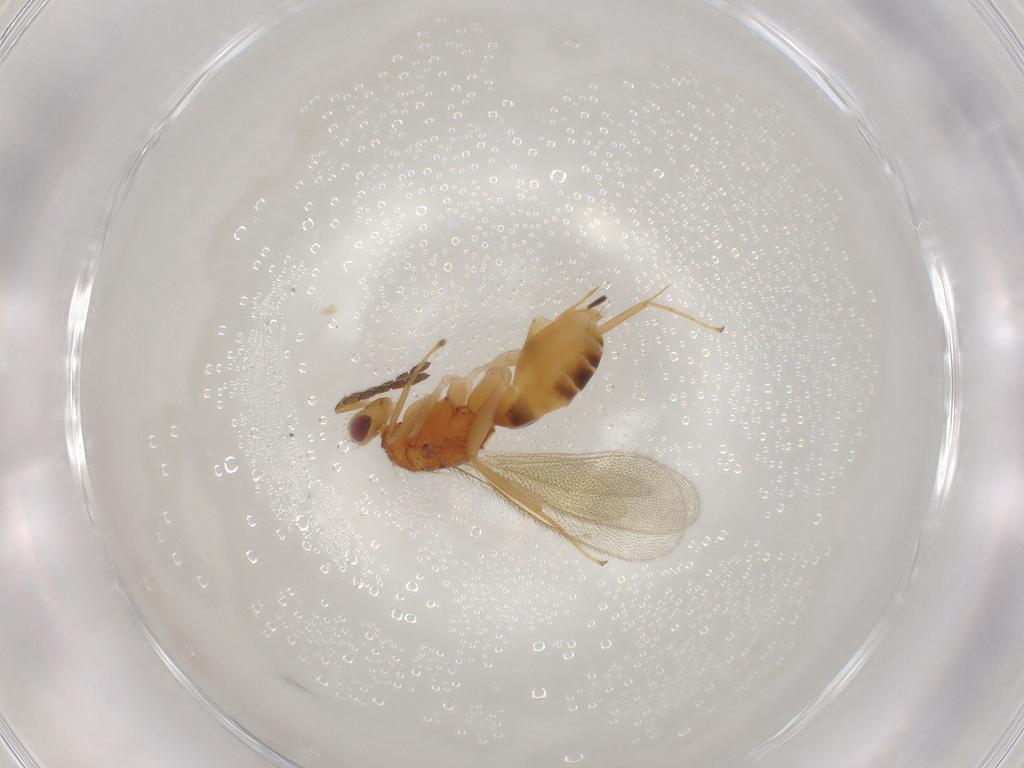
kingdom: Animalia
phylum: Arthropoda
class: Insecta
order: Hymenoptera
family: Eulophidae
